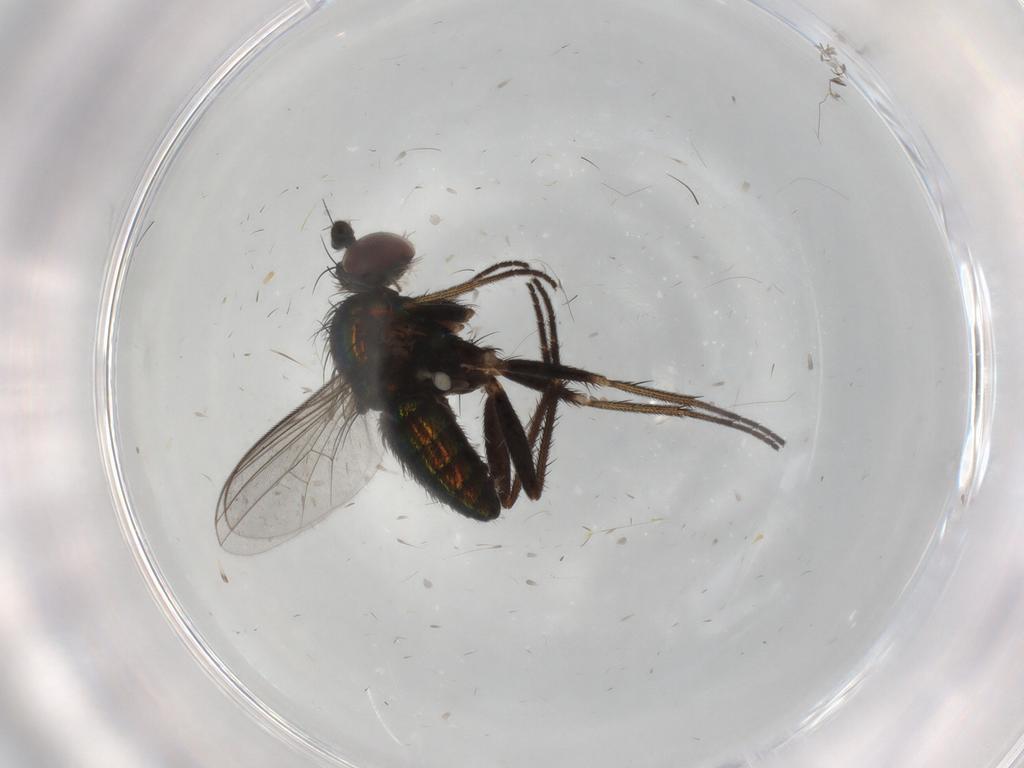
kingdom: Animalia
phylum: Arthropoda
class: Insecta
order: Diptera
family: Dolichopodidae
